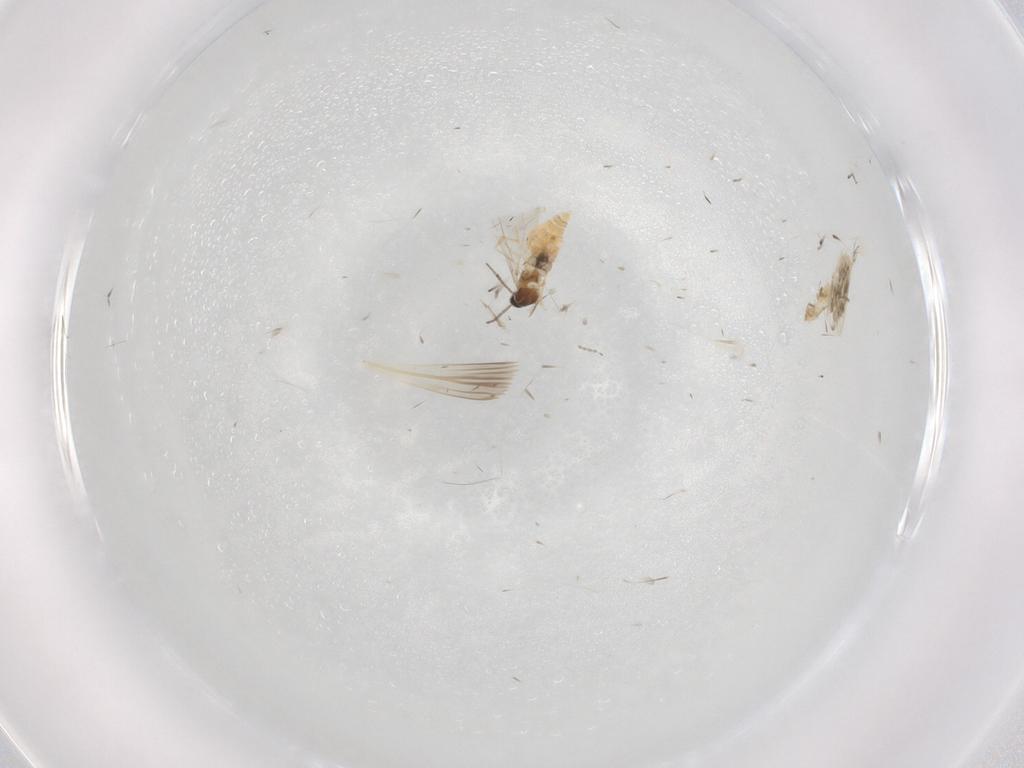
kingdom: Animalia
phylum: Arthropoda
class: Insecta
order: Diptera
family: Cecidomyiidae
